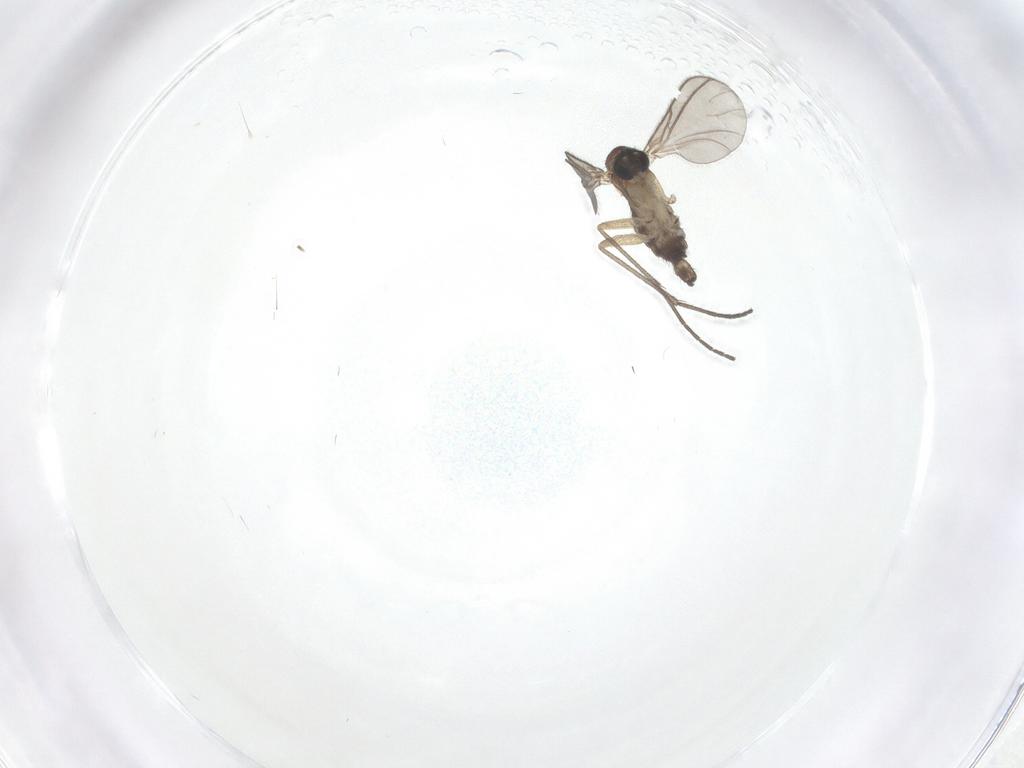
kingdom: Animalia
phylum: Arthropoda
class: Insecta
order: Diptera
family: Sciaridae
